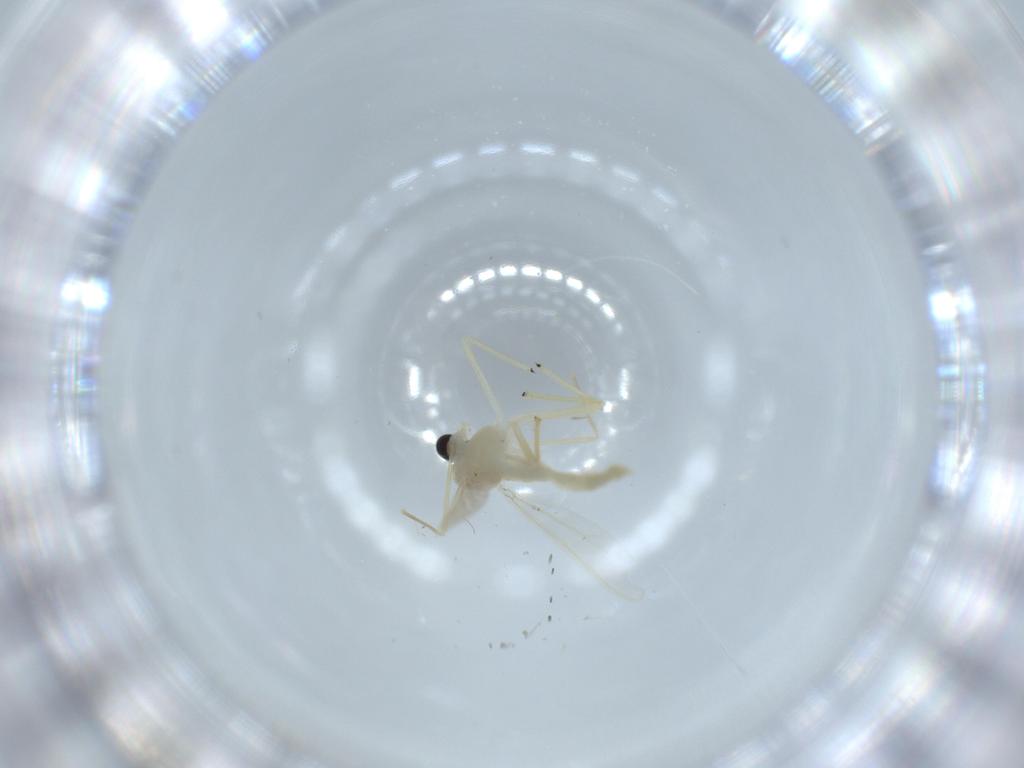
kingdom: Animalia
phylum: Arthropoda
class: Insecta
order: Diptera
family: Chironomidae
